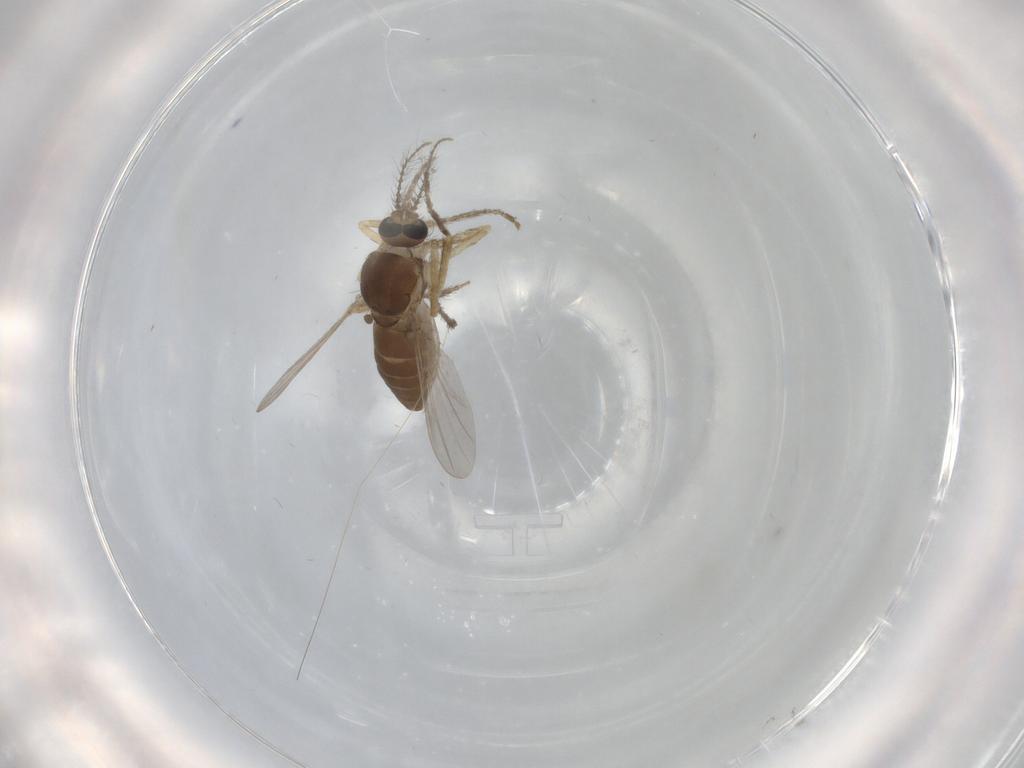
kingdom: Animalia
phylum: Arthropoda
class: Insecta
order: Diptera
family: Ceratopogonidae
